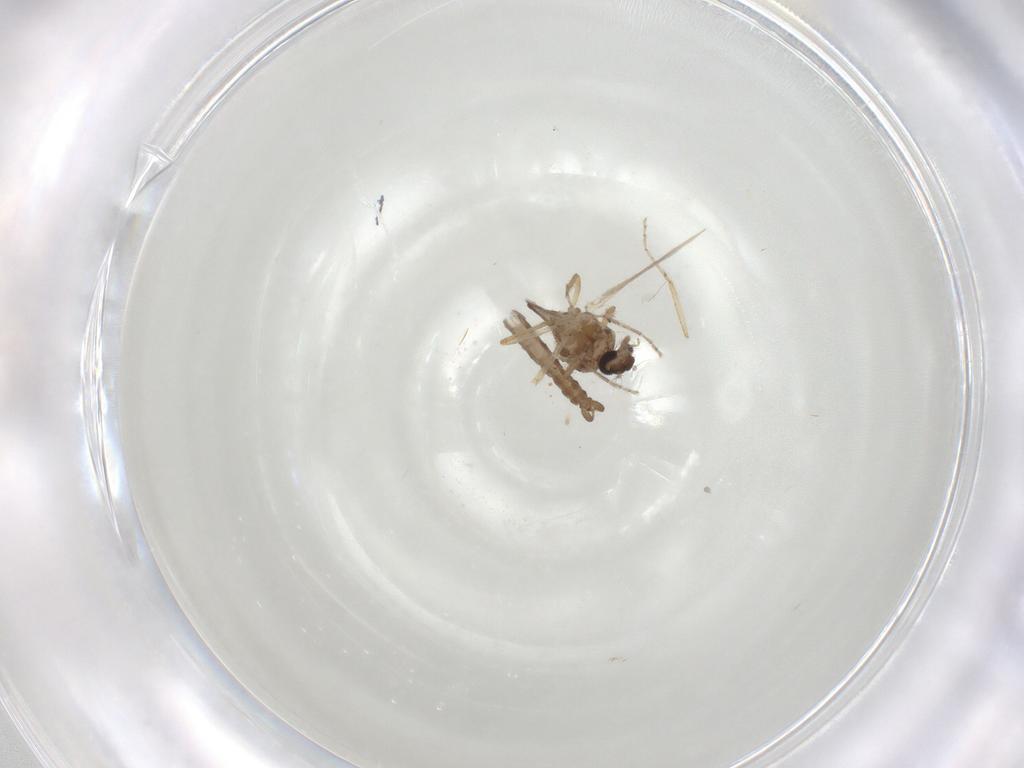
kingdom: Animalia
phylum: Arthropoda
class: Insecta
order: Diptera
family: Ceratopogonidae
